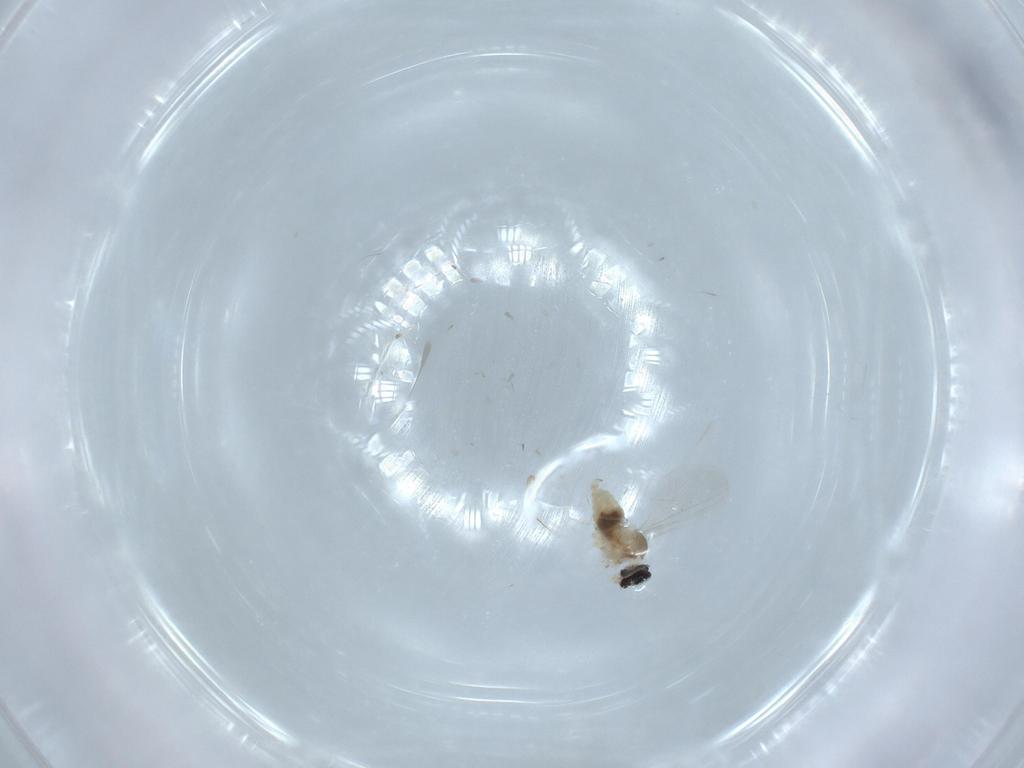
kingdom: Animalia
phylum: Arthropoda
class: Insecta
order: Diptera
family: Cecidomyiidae
